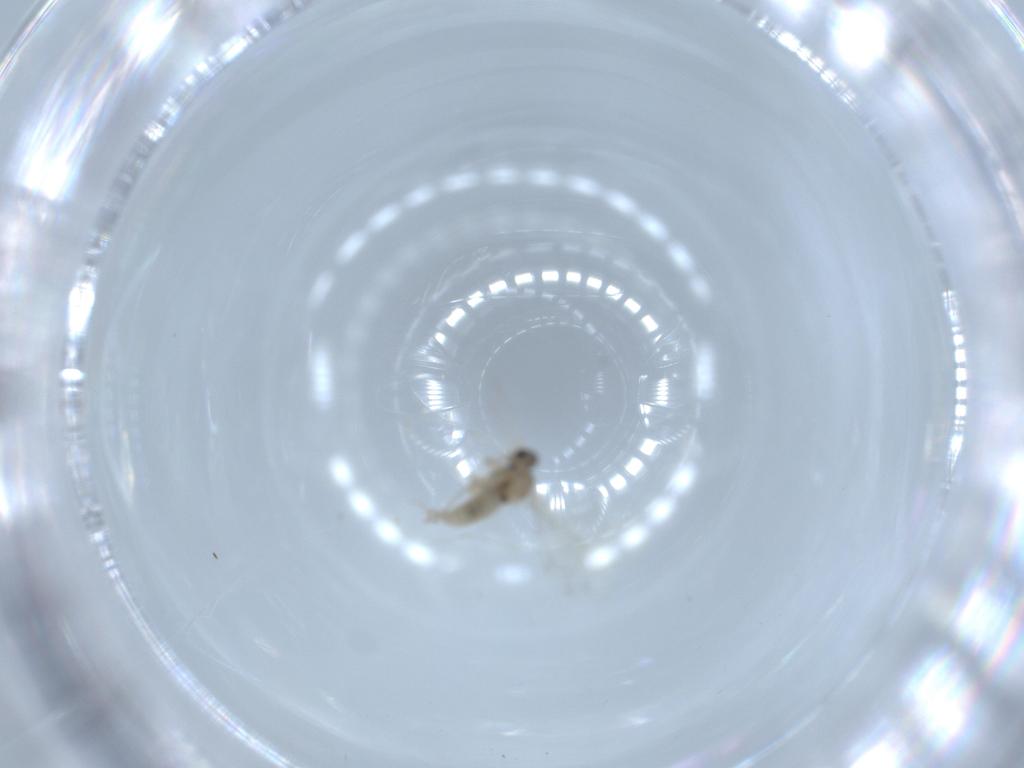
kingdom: Animalia
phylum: Arthropoda
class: Insecta
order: Diptera
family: Cecidomyiidae
